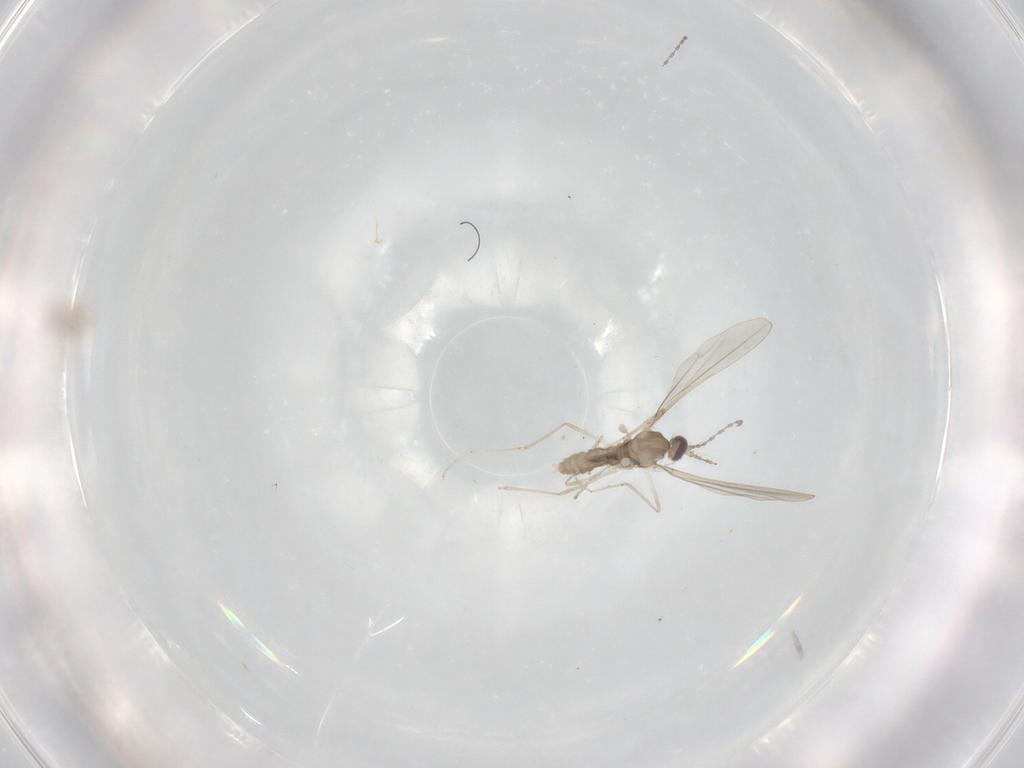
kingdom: Animalia
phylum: Arthropoda
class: Insecta
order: Diptera
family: Cecidomyiidae
